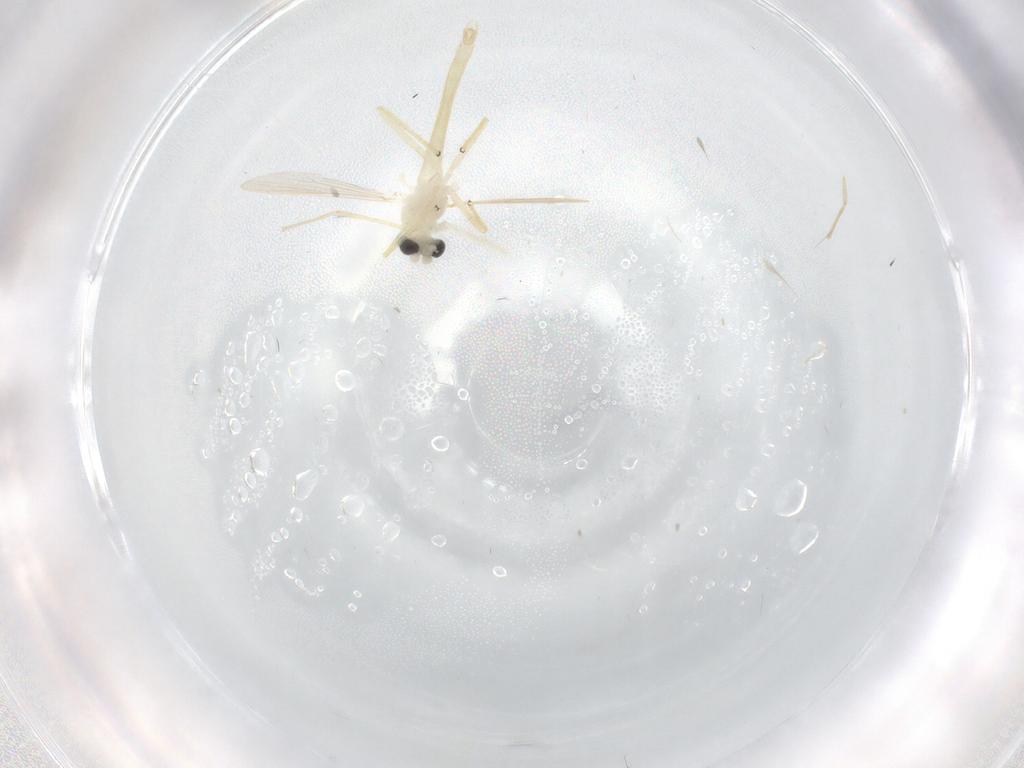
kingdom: Animalia
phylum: Arthropoda
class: Insecta
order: Diptera
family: Chironomidae
